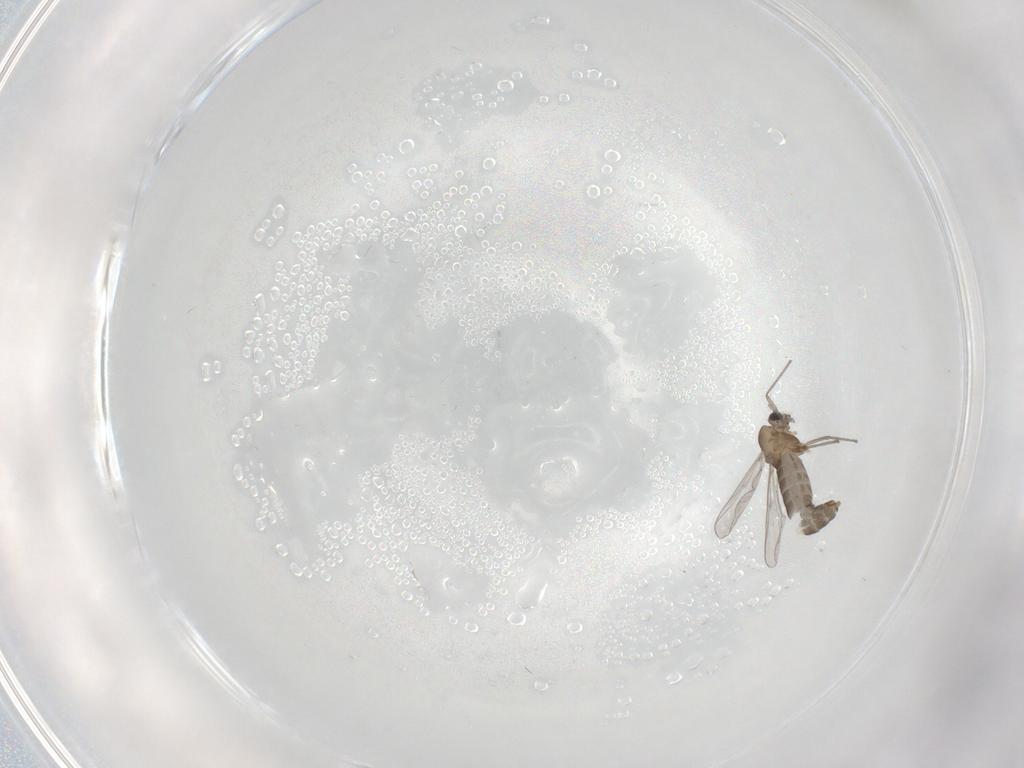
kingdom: Animalia
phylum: Arthropoda
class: Insecta
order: Diptera
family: Chironomidae
